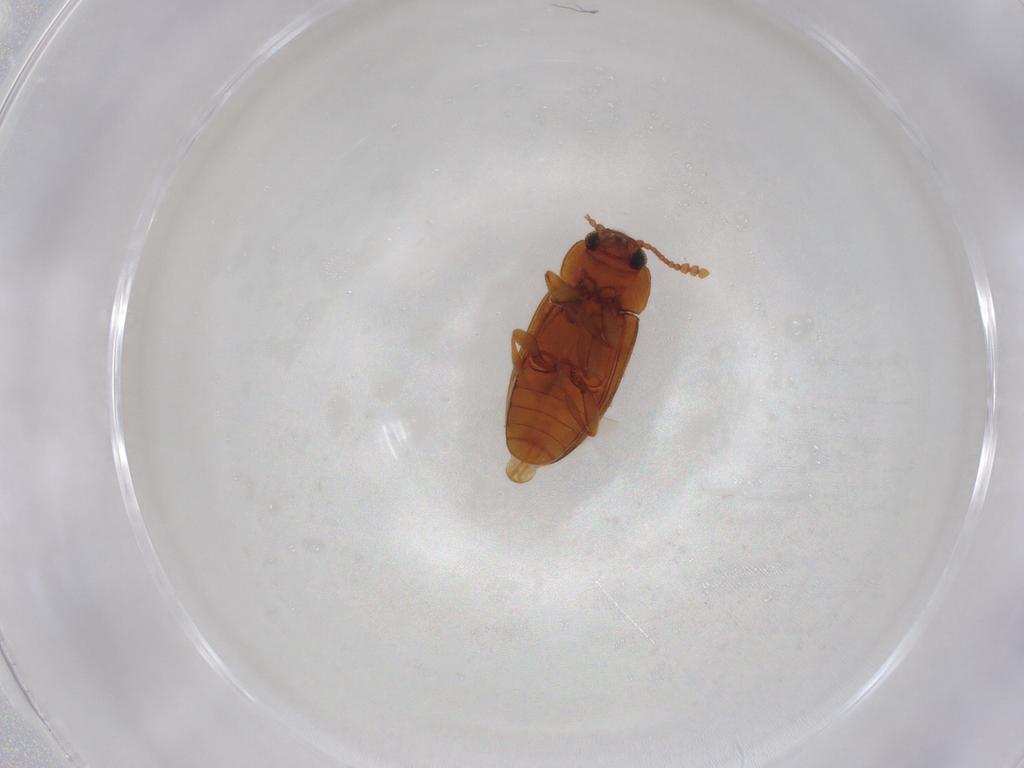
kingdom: Animalia
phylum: Arthropoda
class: Insecta
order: Coleoptera
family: Erotylidae
